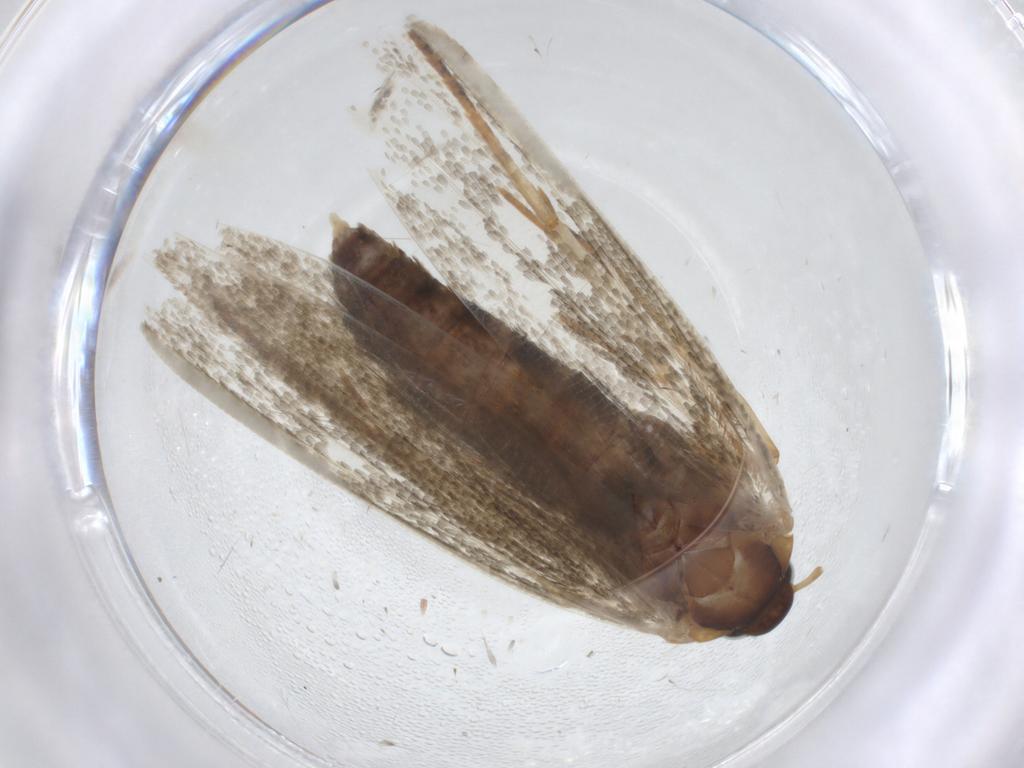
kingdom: Animalia
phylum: Arthropoda
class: Insecta
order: Lepidoptera
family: Blastobasidae
